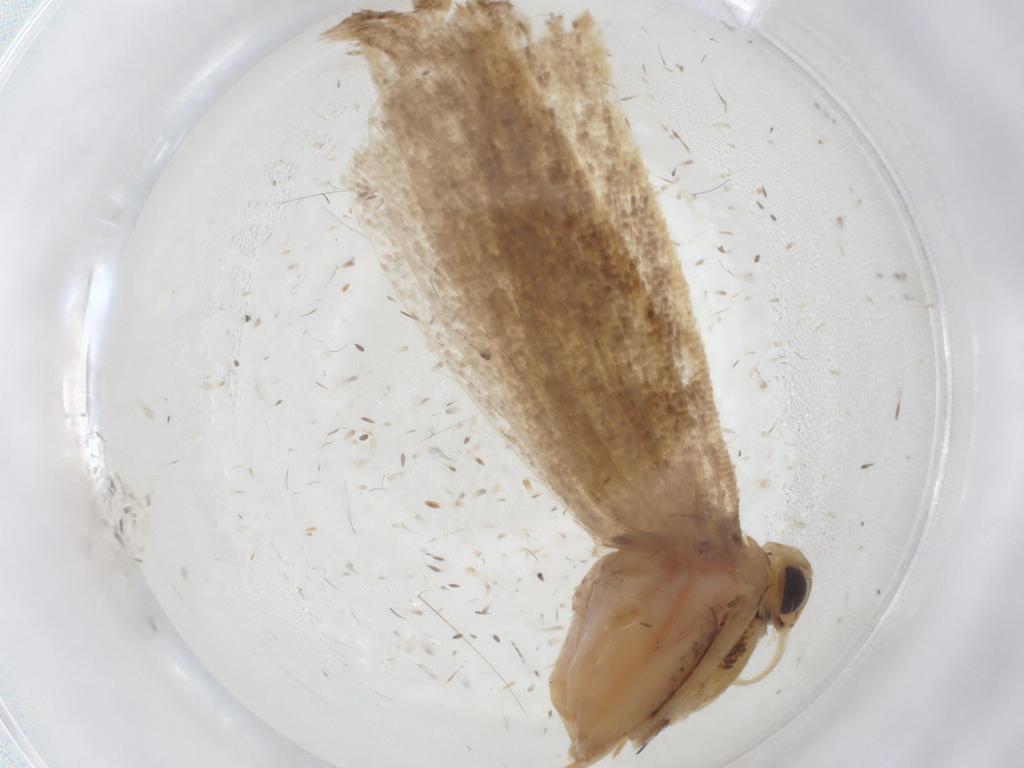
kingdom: Animalia
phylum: Arthropoda
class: Insecta
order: Lepidoptera
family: Gelechiidae
